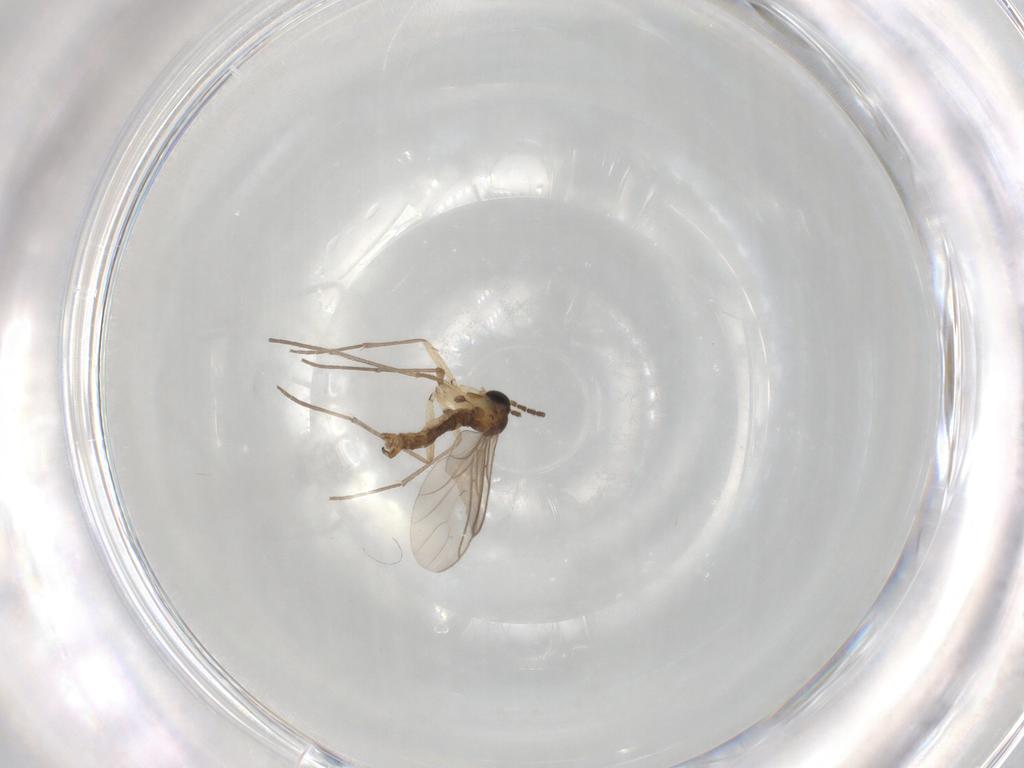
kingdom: Animalia
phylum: Arthropoda
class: Insecta
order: Diptera
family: Sciaridae
